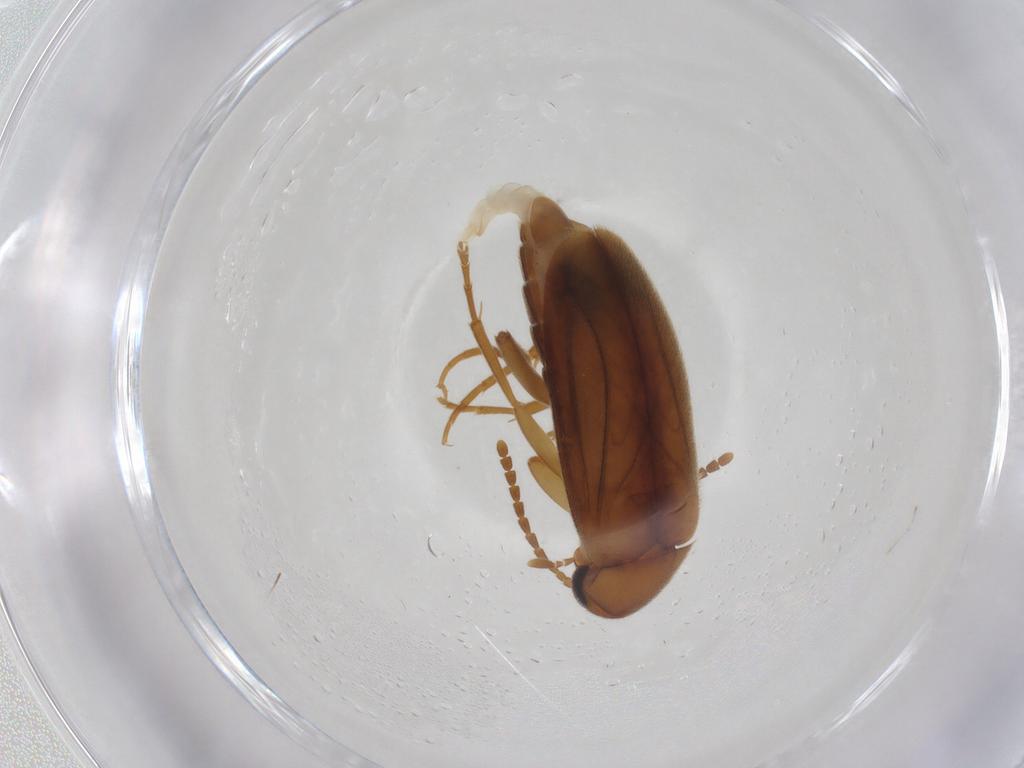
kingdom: Animalia
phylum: Arthropoda
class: Insecta
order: Coleoptera
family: Scraptiidae
